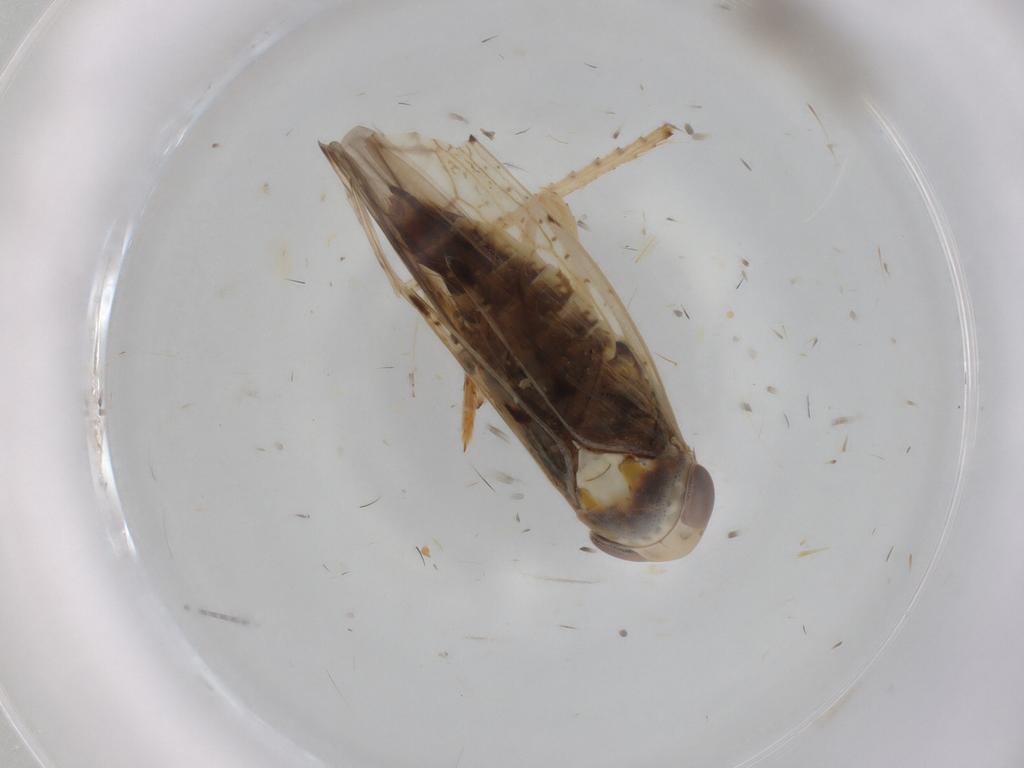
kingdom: Animalia
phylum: Arthropoda
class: Insecta
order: Hemiptera
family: Cicadellidae
